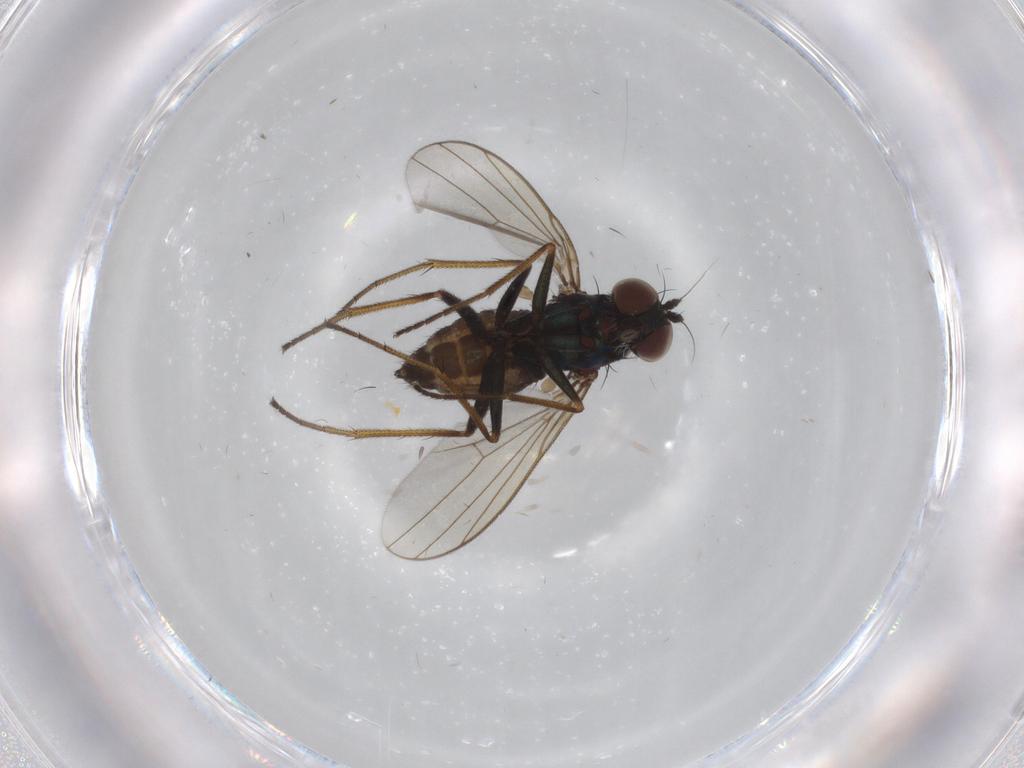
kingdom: Animalia
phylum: Arthropoda
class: Insecta
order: Diptera
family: Dolichopodidae
